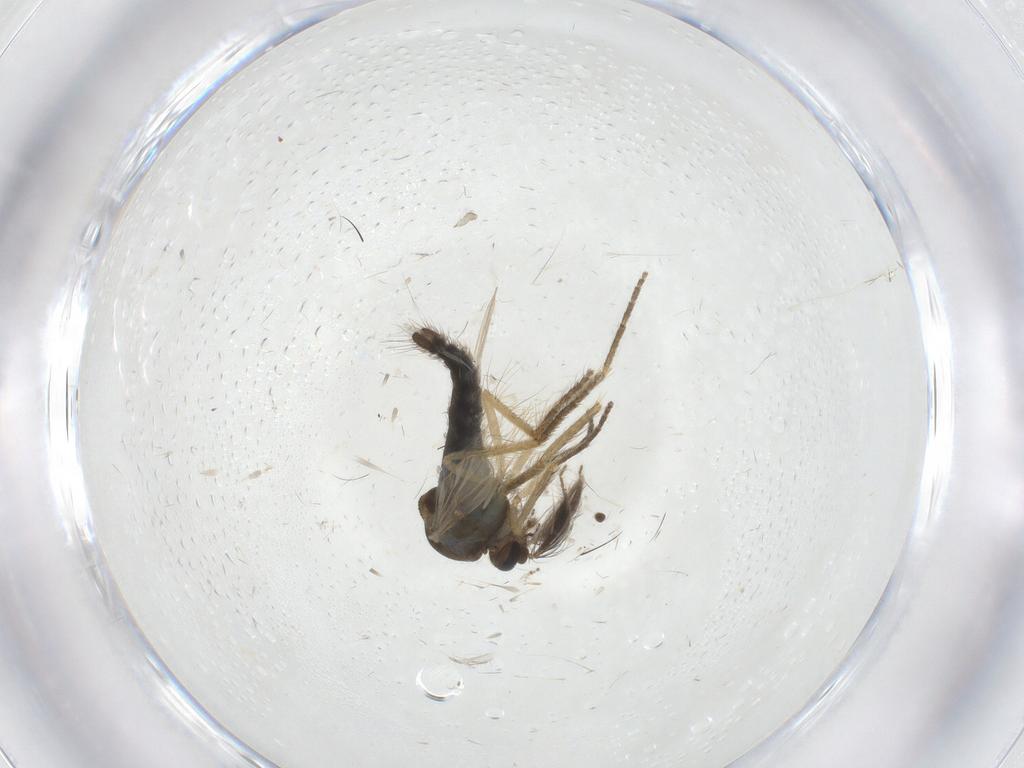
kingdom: Animalia
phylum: Arthropoda
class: Insecta
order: Diptera
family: Ceratopogonidae
